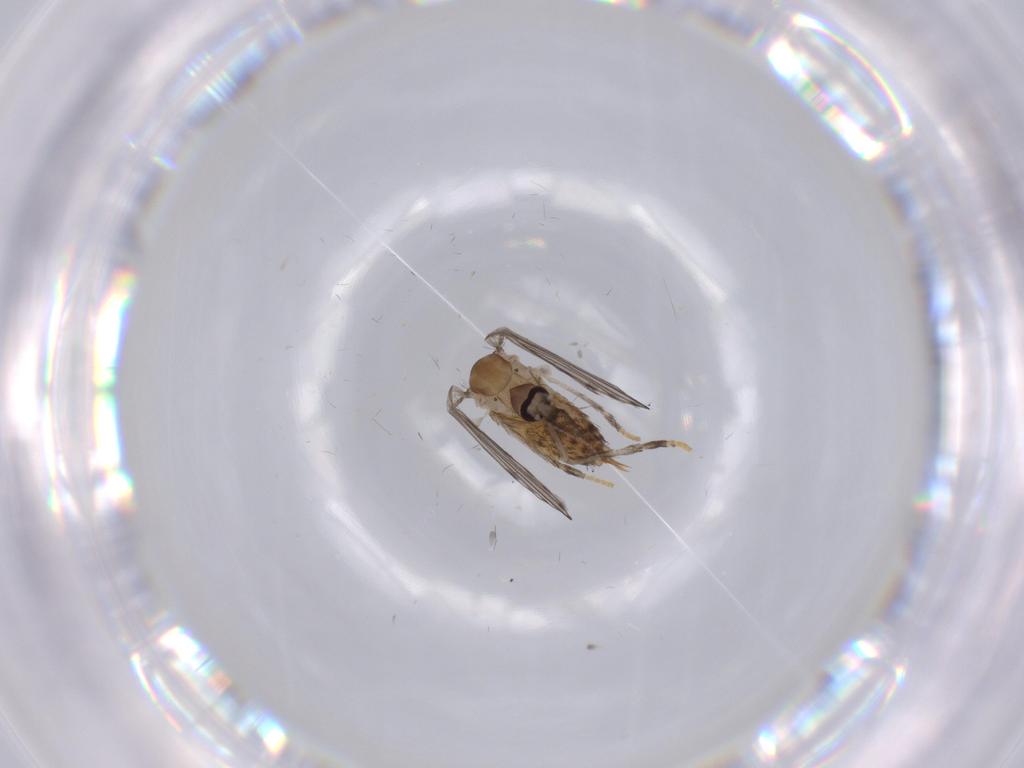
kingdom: Animalia
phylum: Arthropoda
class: Insecta
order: Diptera
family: Psychodidae
